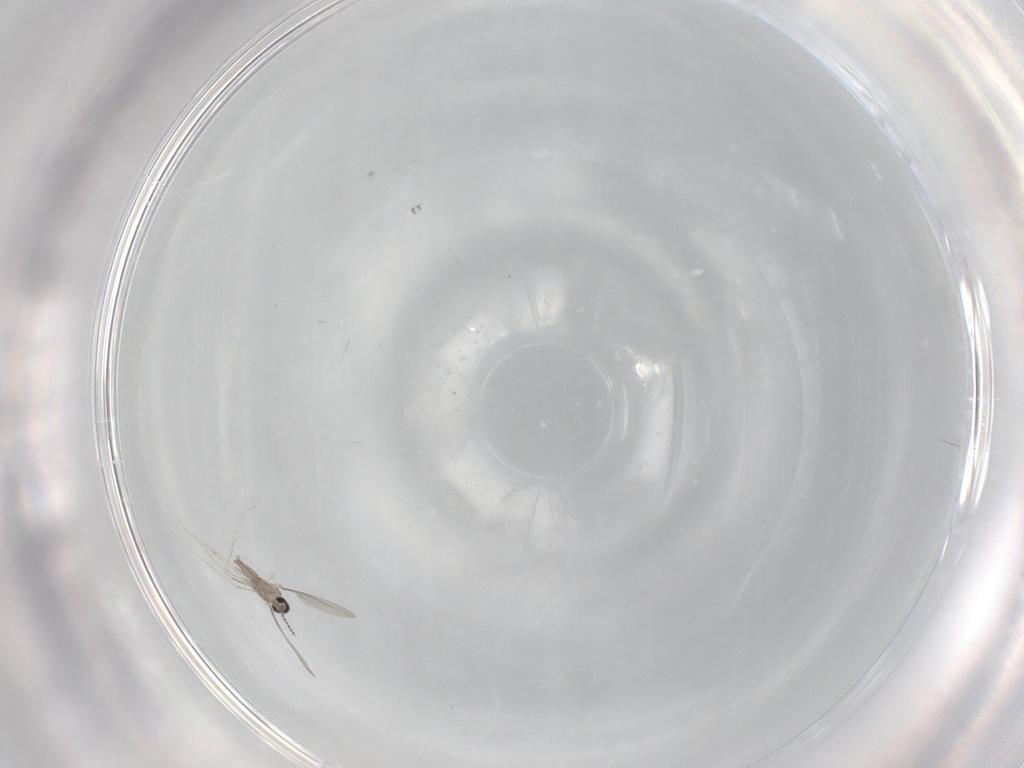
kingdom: Animalia
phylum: Arthropoda
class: Insecta
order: Diptera
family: Cecidomyiidae
